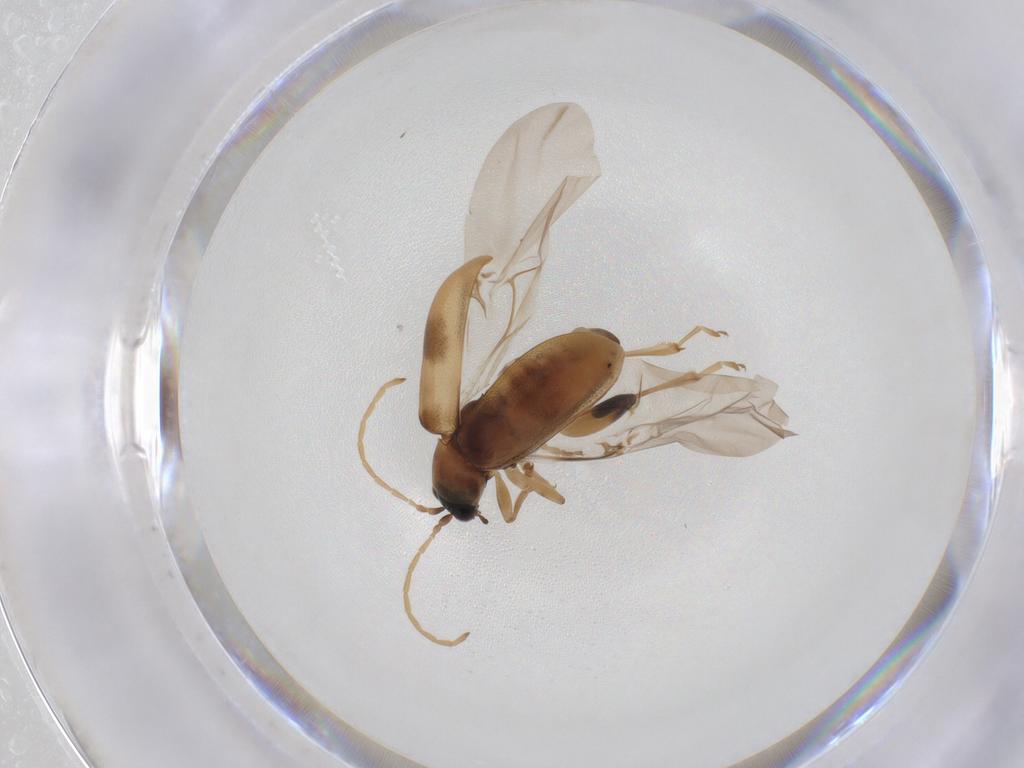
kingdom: Animalia
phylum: Arthropoda
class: Insecta
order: Coleoptera
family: Chrysomelidae
